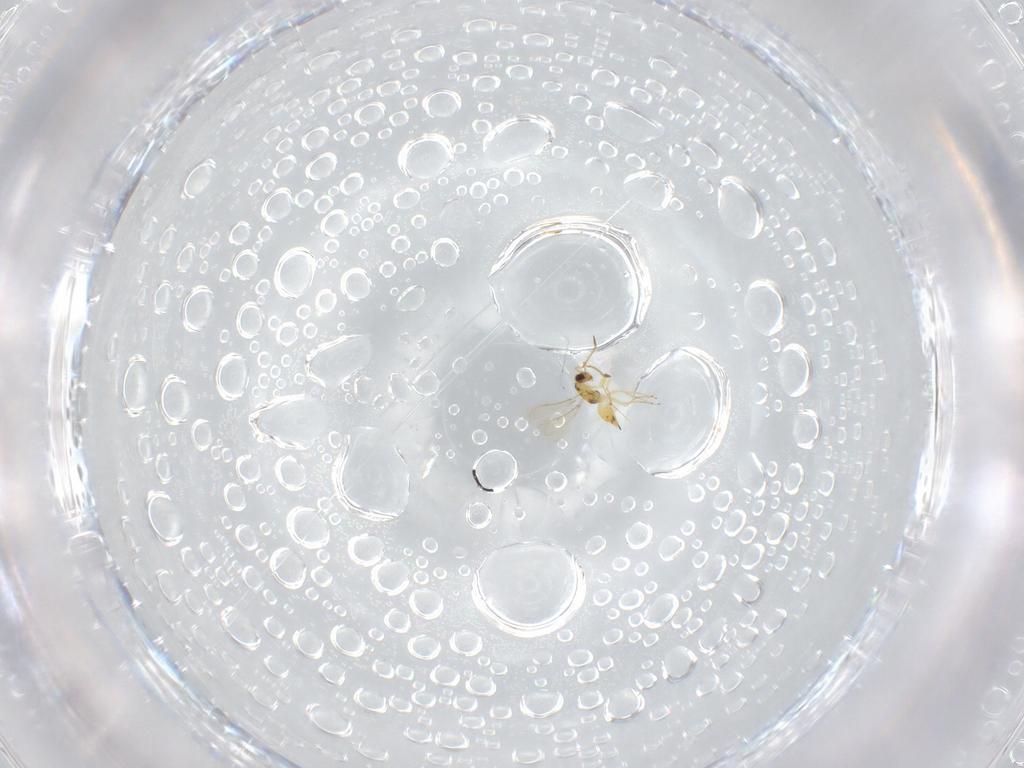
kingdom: Animalia
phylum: Arthropoda
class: Insecta
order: Hymenoptera
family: Mymaridae
